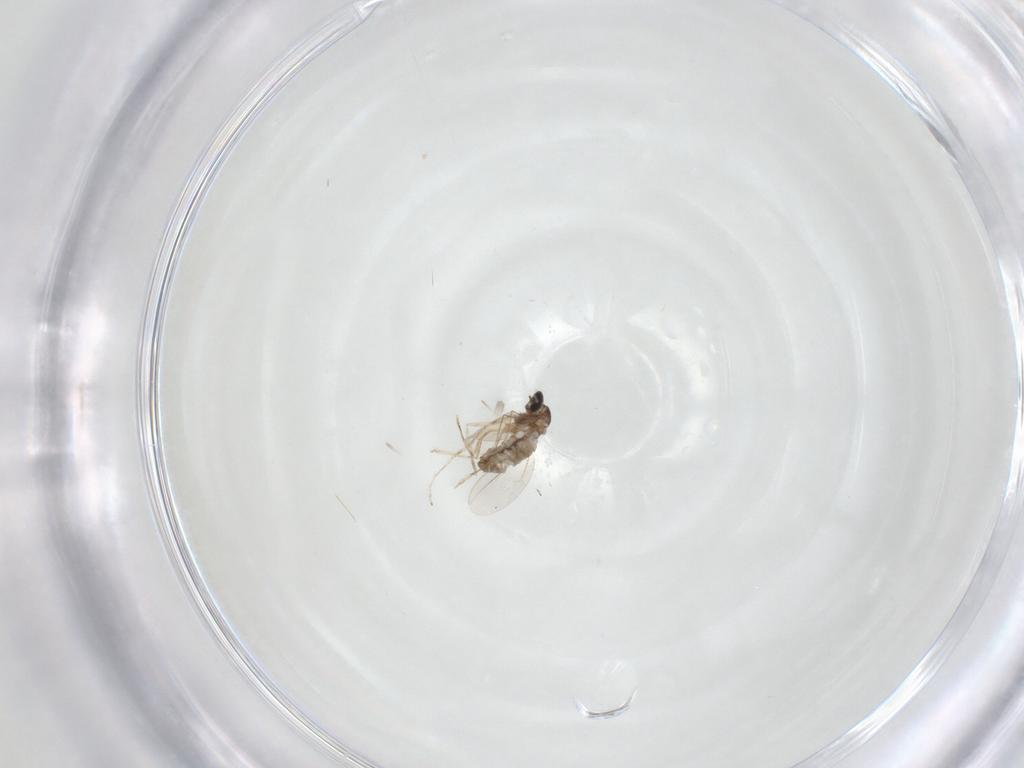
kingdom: Animalia
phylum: Arthropoda
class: Insecta
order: Diptera
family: Cecidomyiidae
